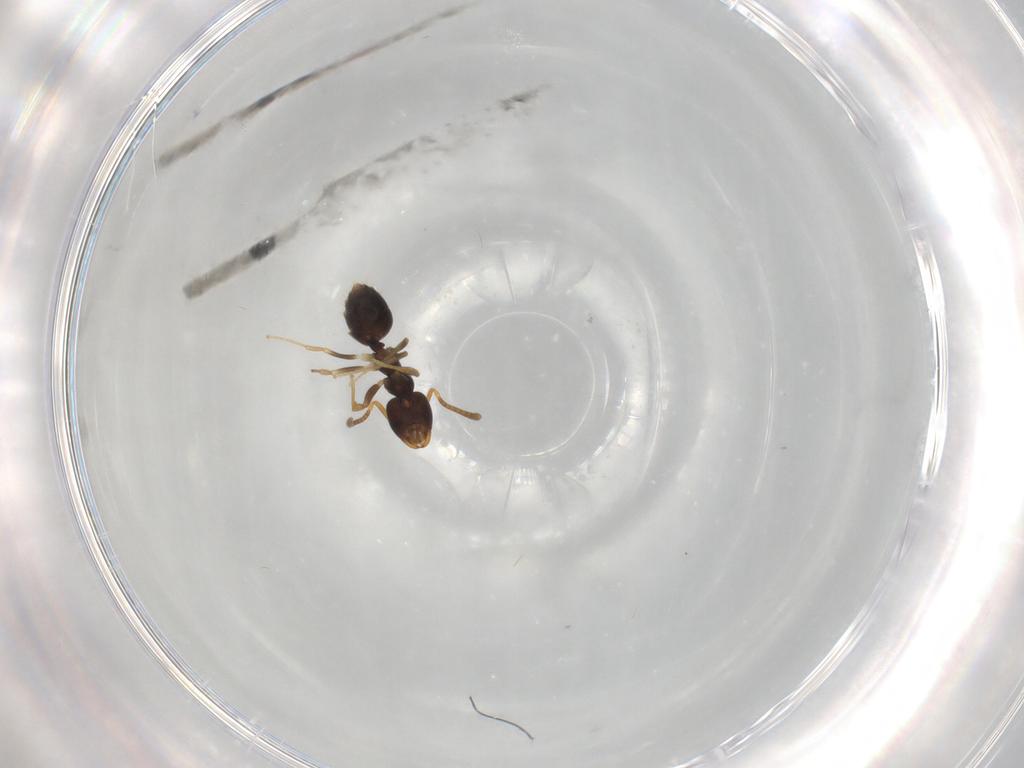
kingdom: Animalia
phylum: Arthropoda
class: Insecta
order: Hymenoptera
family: Formicidae
